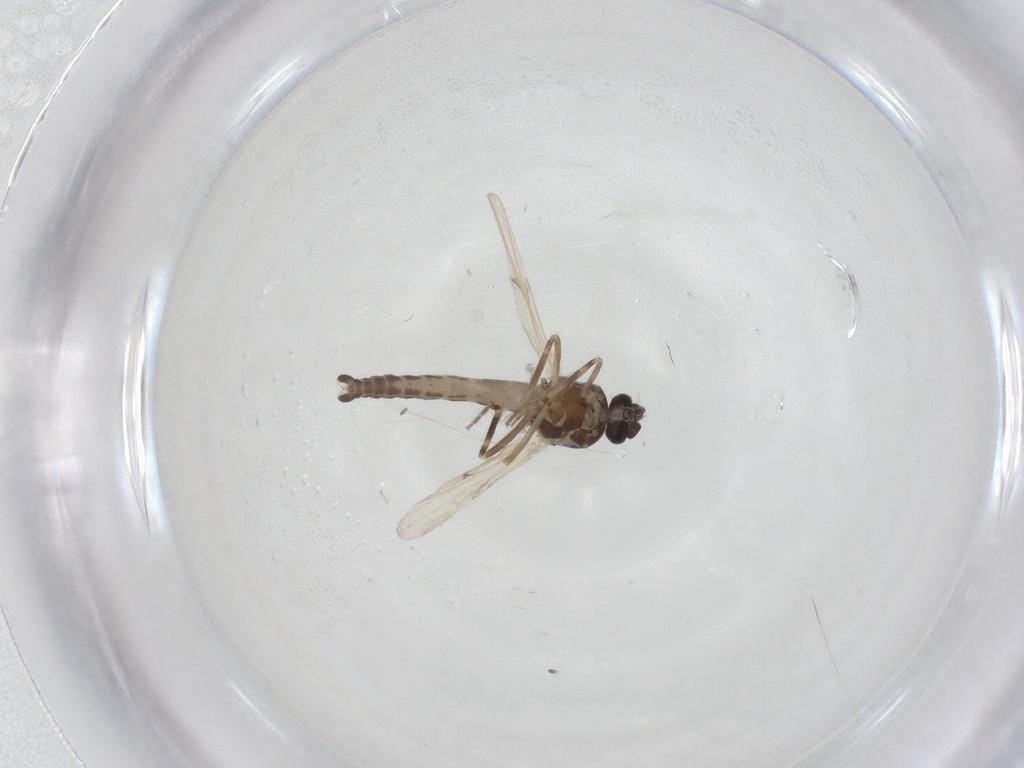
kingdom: Animalia
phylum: Arthropoda
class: Insecta
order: Diptera
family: Ceratopogonidae
